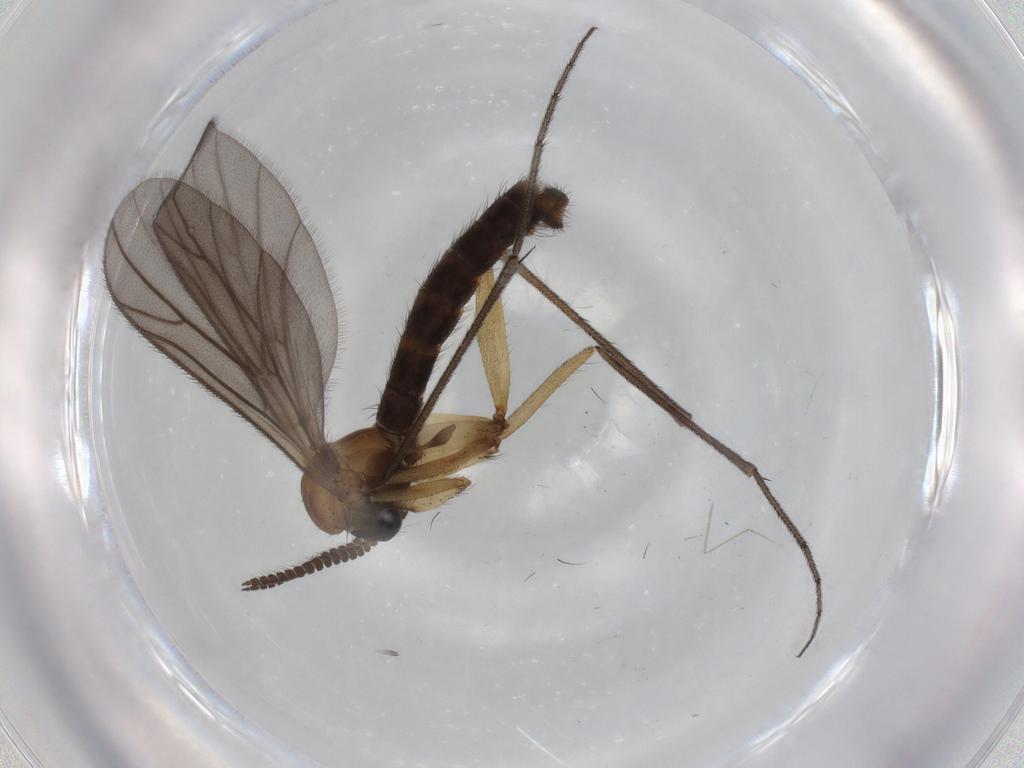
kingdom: Animalia
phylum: Arthropoda
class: Insecta
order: Diptera
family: Ditomyiidae
